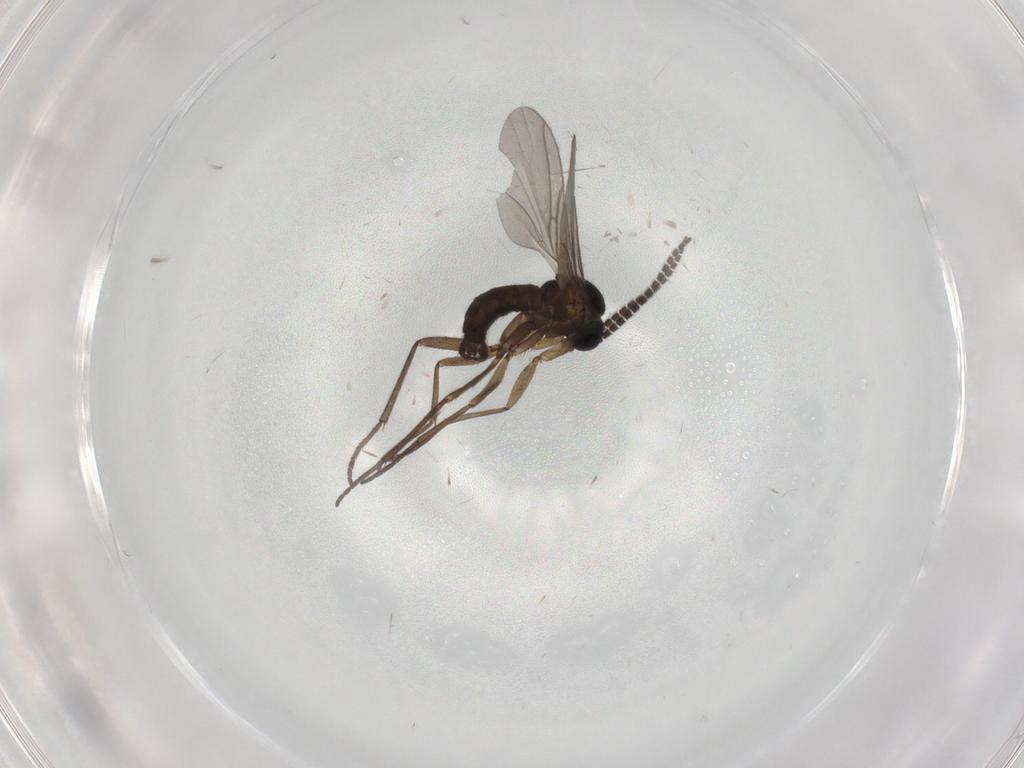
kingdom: Animalia
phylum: Arthropoda
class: Insecta
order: Diptera
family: Sciaridae
